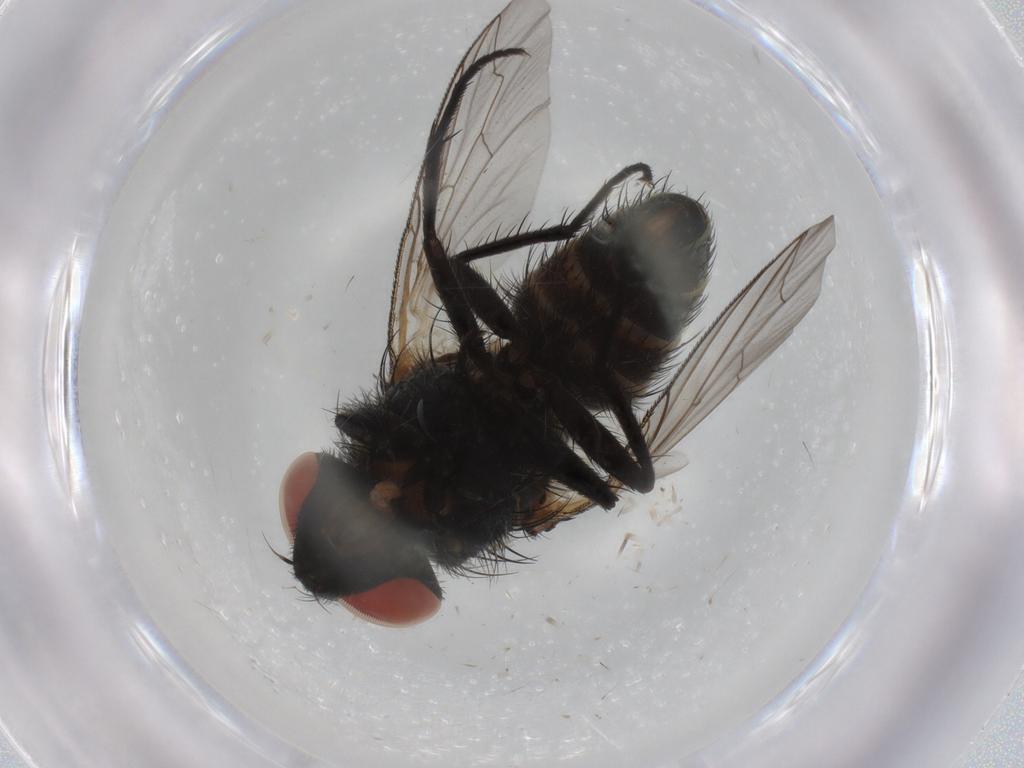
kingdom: Animalia
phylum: Arthropoda
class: Insecta
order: Diptera
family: Sarcophagidae
